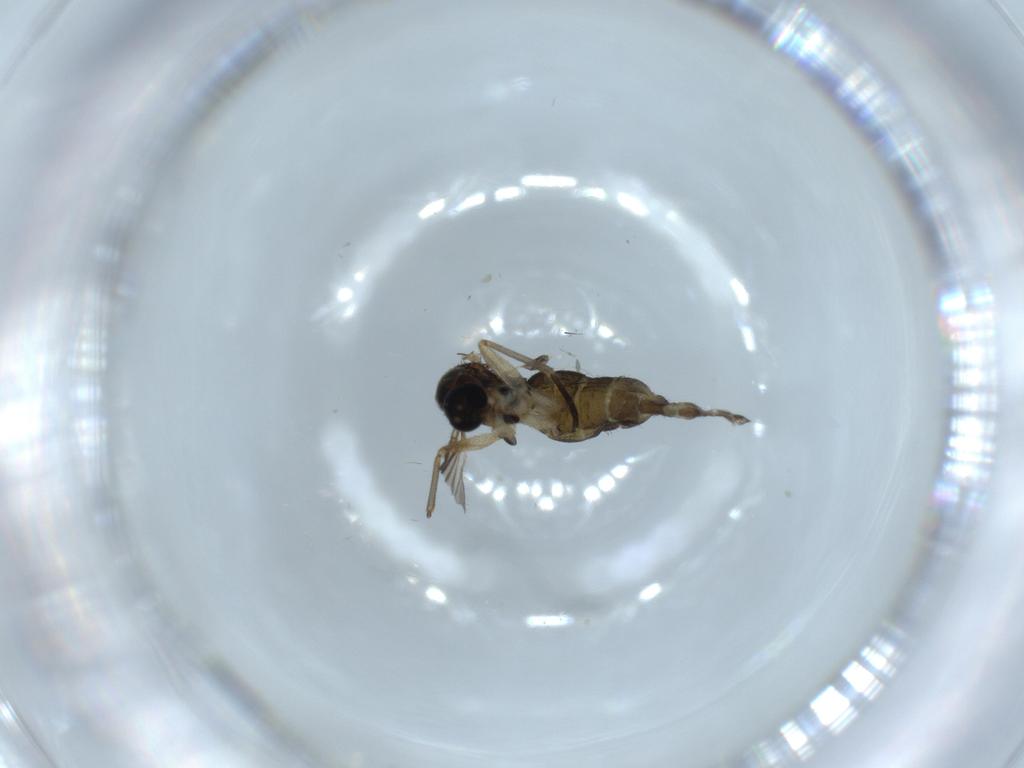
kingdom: Animalia
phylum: Arthropoda
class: Insecta
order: Diptera
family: Sciaridae
